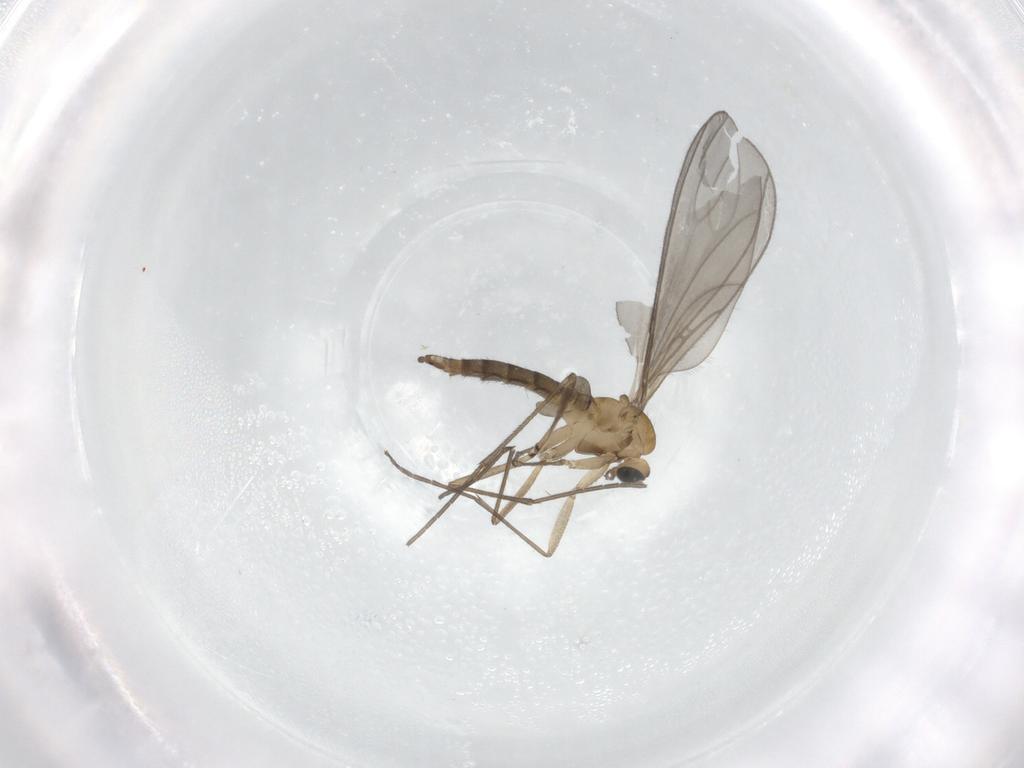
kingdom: Animalia
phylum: Arthropoda
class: Insecta
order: Diptera
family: Sciaridae
